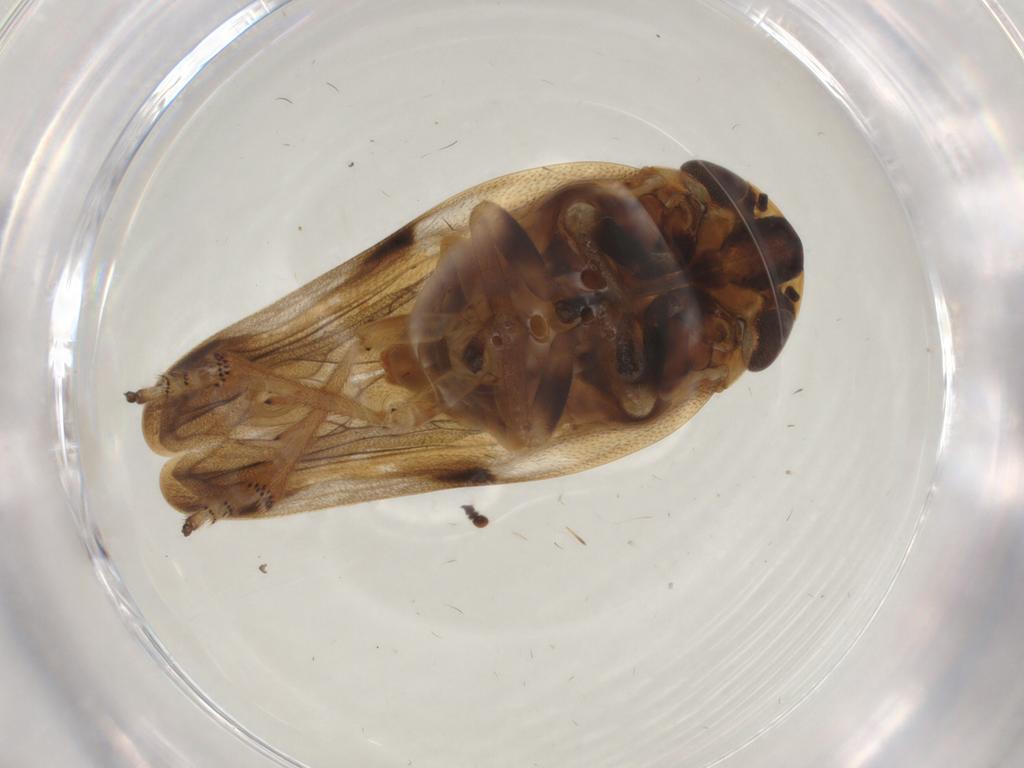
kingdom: Animalia
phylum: Arthropoda
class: Insecta
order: Hemiptera
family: Aphrophoridae
